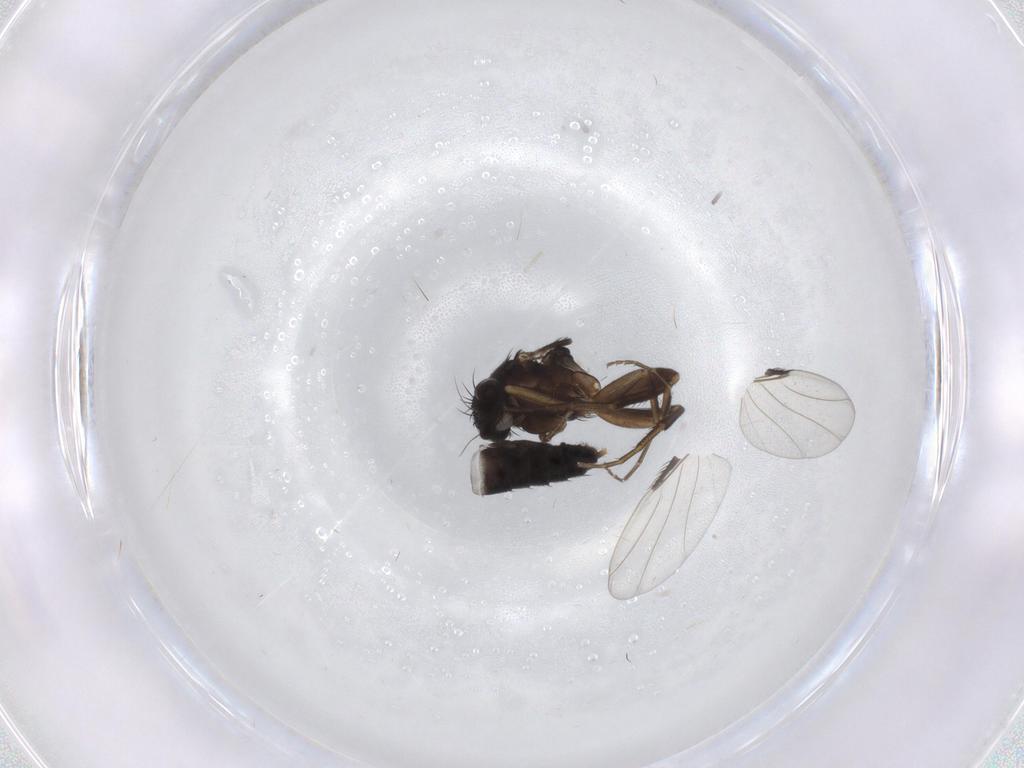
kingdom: Animalia
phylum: Arthropoda
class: Insecta
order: Diptera
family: Phoridae
